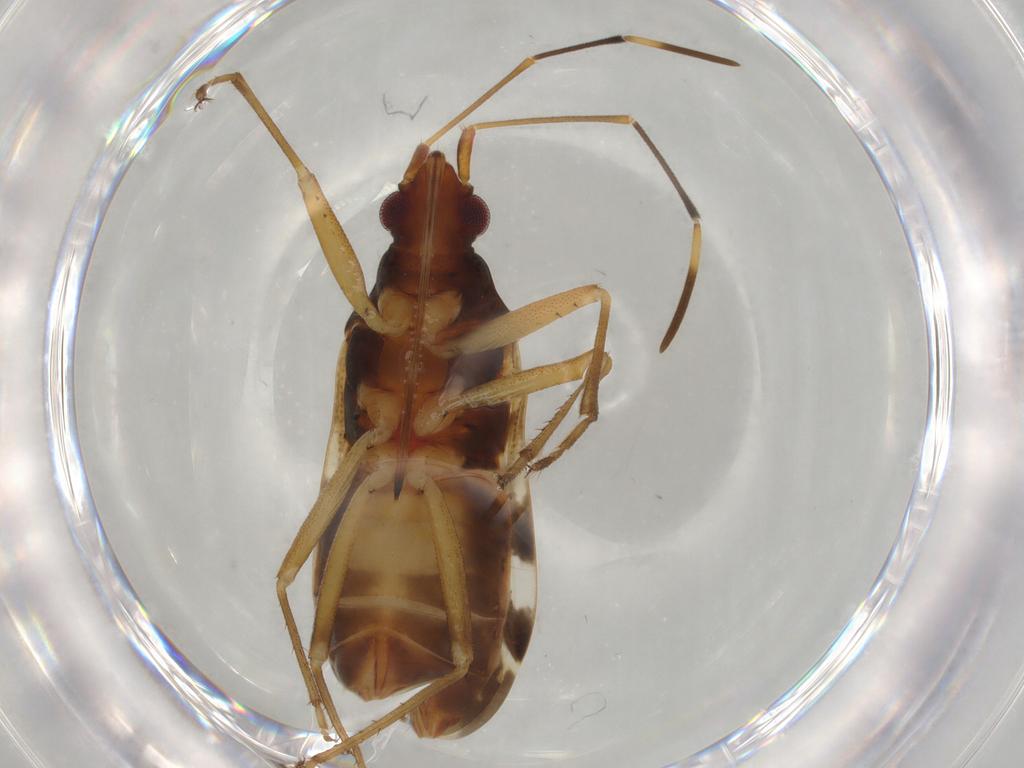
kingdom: Animalia
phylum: Arthropoda
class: Insecta
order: Hemiptera
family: Rhyparochromidae
